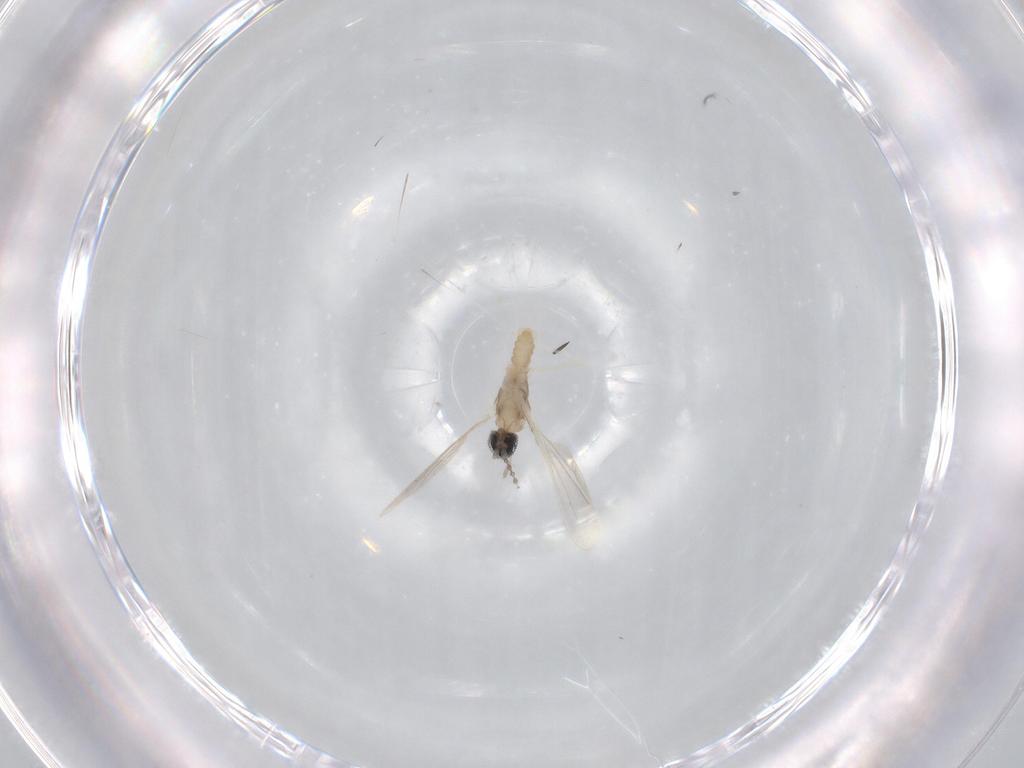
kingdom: Animalia
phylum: Arthropoda
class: Insecta
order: Diptera
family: Cecidomyiidae
